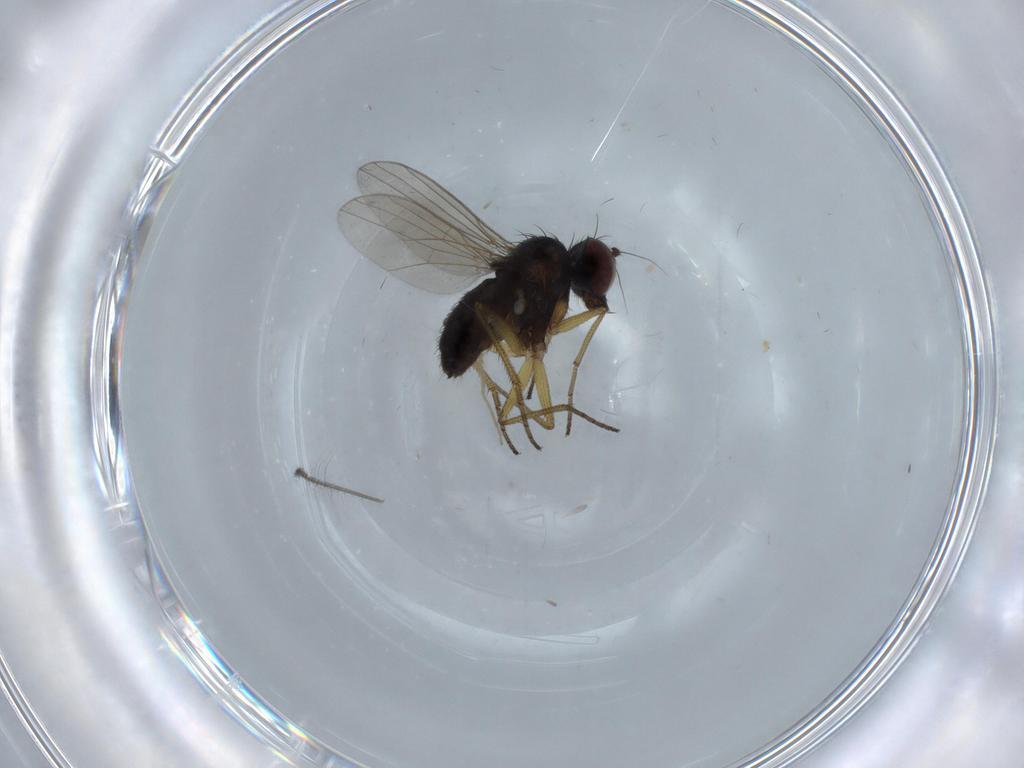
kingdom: Animalia
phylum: Arthropoda
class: Insecta
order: Diptera
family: Dolichopodidae
